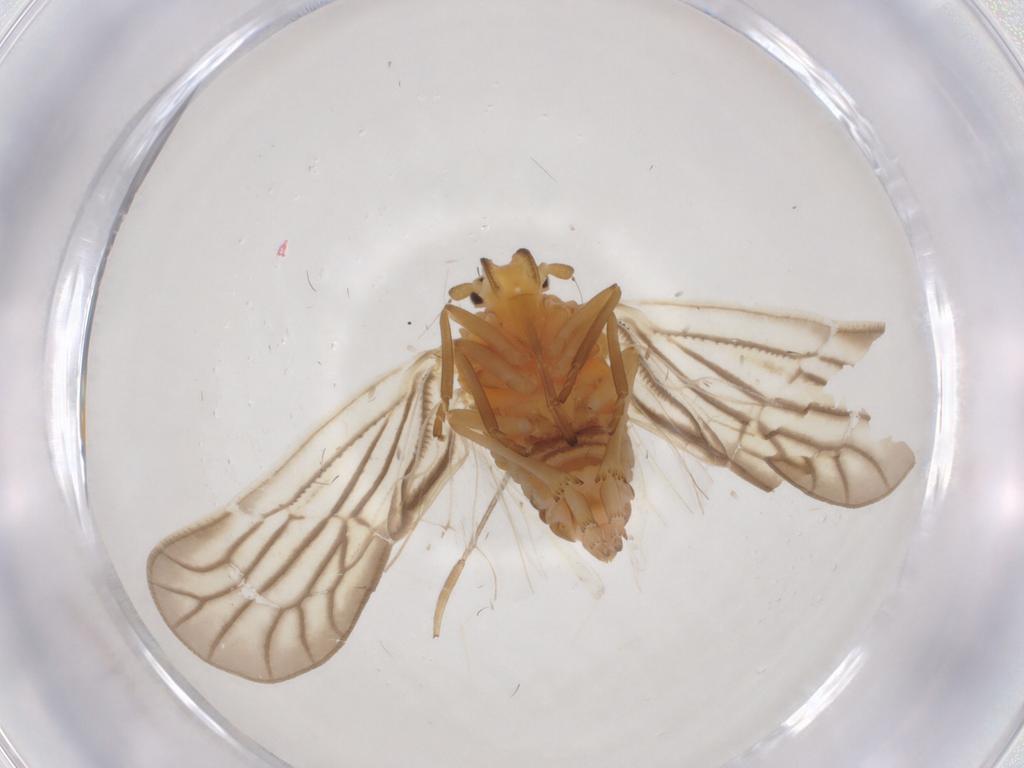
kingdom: Animalia
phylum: Arthropoda
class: Insecta
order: Hemiptera
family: Meenoplidae
